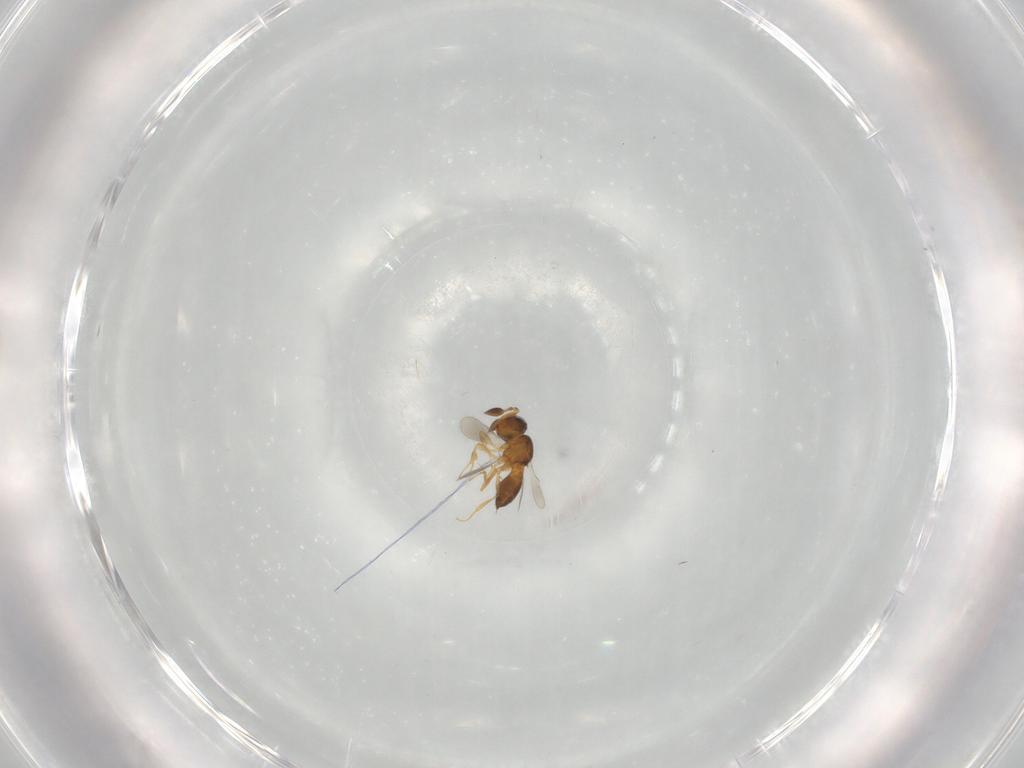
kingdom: Animalia
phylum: Arthropoda
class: Insecta
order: Hymenoptera
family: Scelionidae
